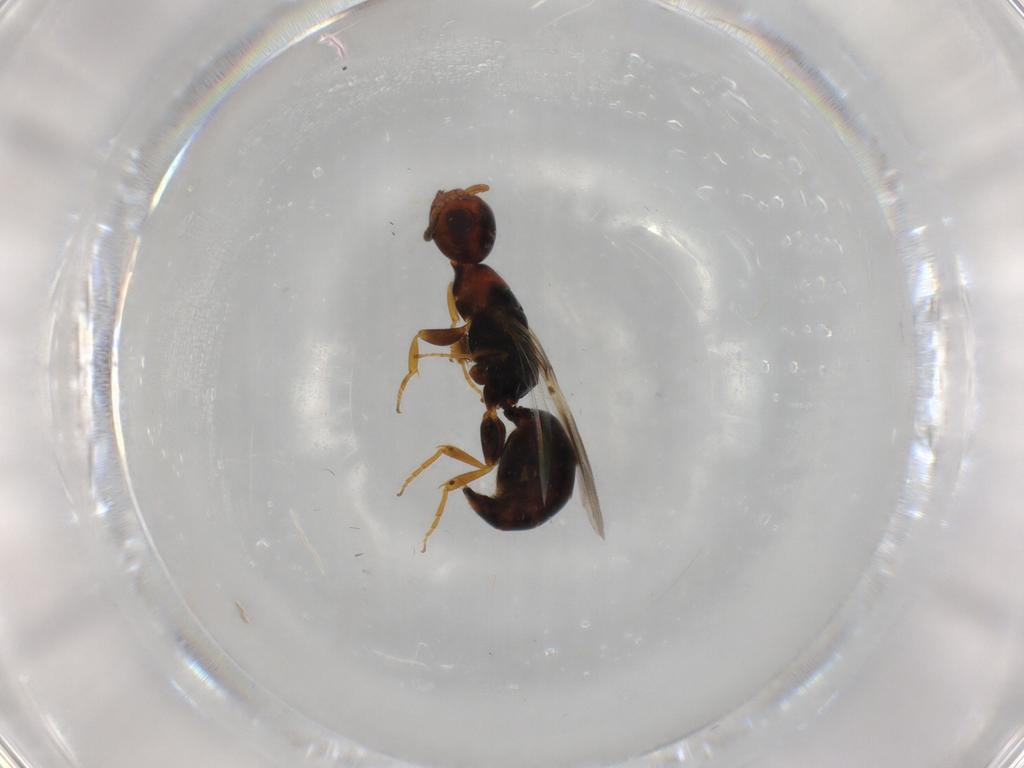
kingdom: Animalia
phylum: Arthropoda
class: Insecta
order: Hymenoptera
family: Bethylidae
